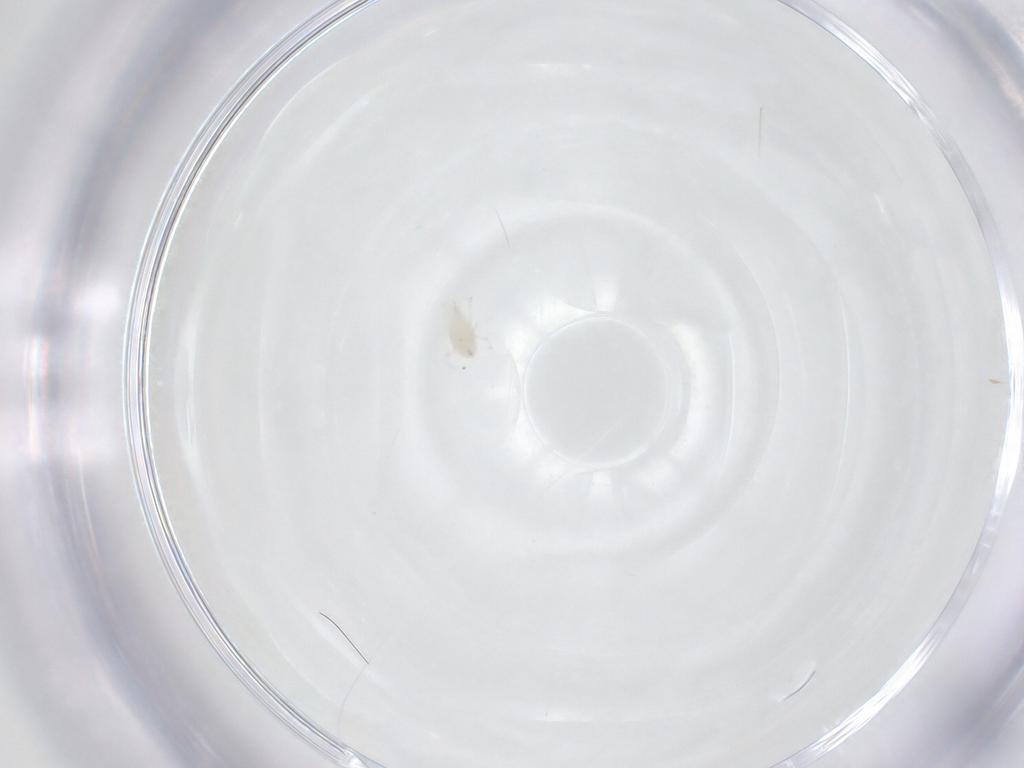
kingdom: Animalia
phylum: Arthropoda
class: Arachnida
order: Mesostigmata
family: Phytoseiidae
